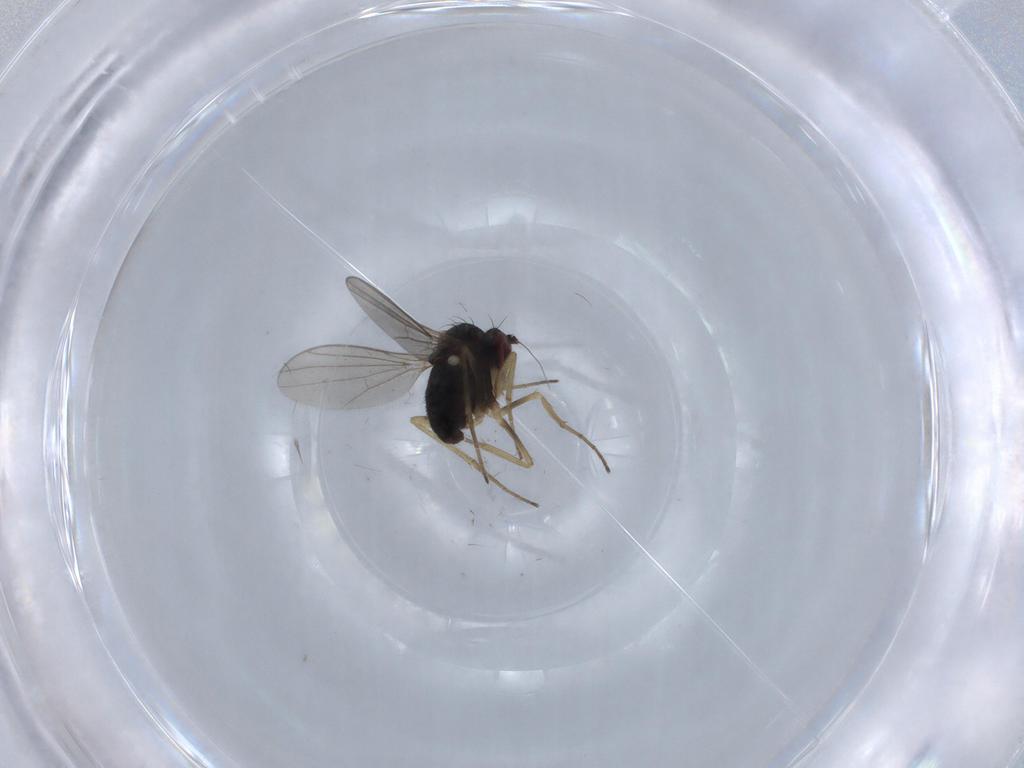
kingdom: Animalia
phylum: Arthropoda
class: Insecta
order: Diptera
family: Dolichopodidae
